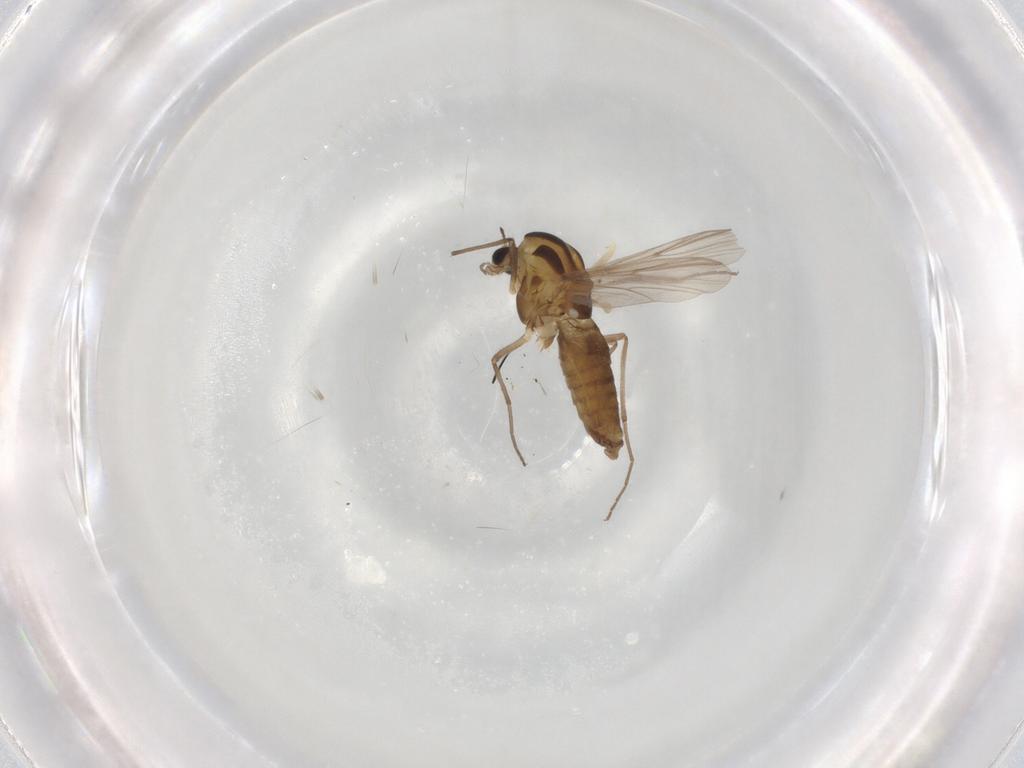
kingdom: Animalia
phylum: Arthropoda
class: Insecta
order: Diptera
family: Chironomidae
